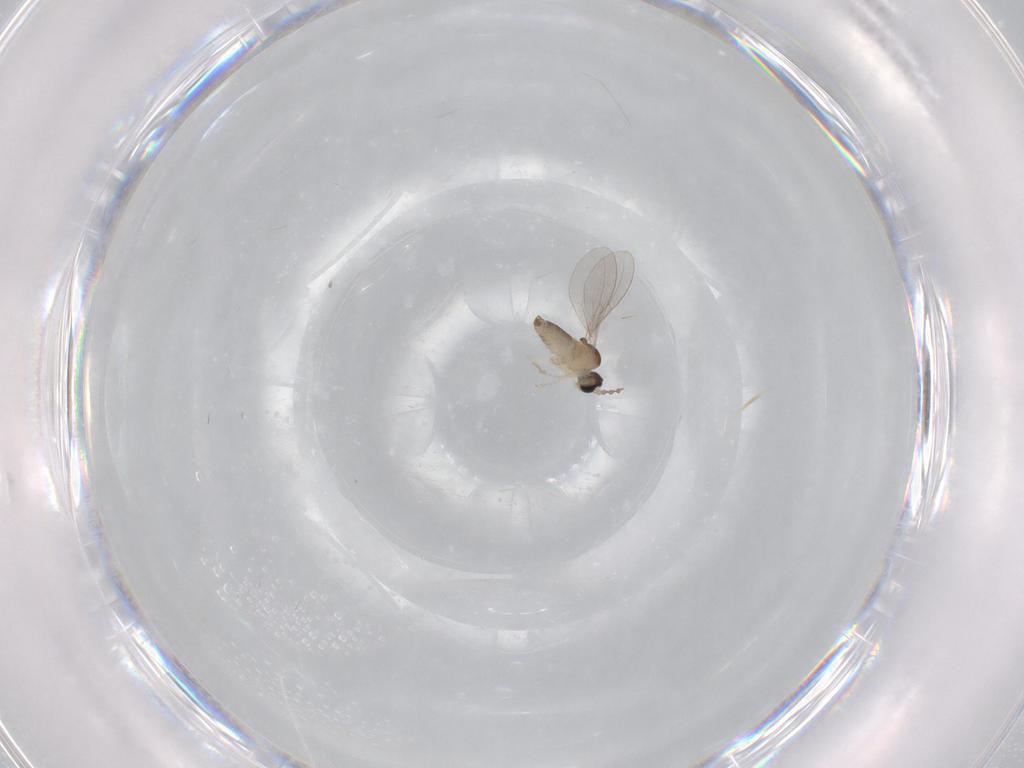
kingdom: Animalia
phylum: Arthropoda
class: Insecta
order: Diptera
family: Cecidomyiidae
